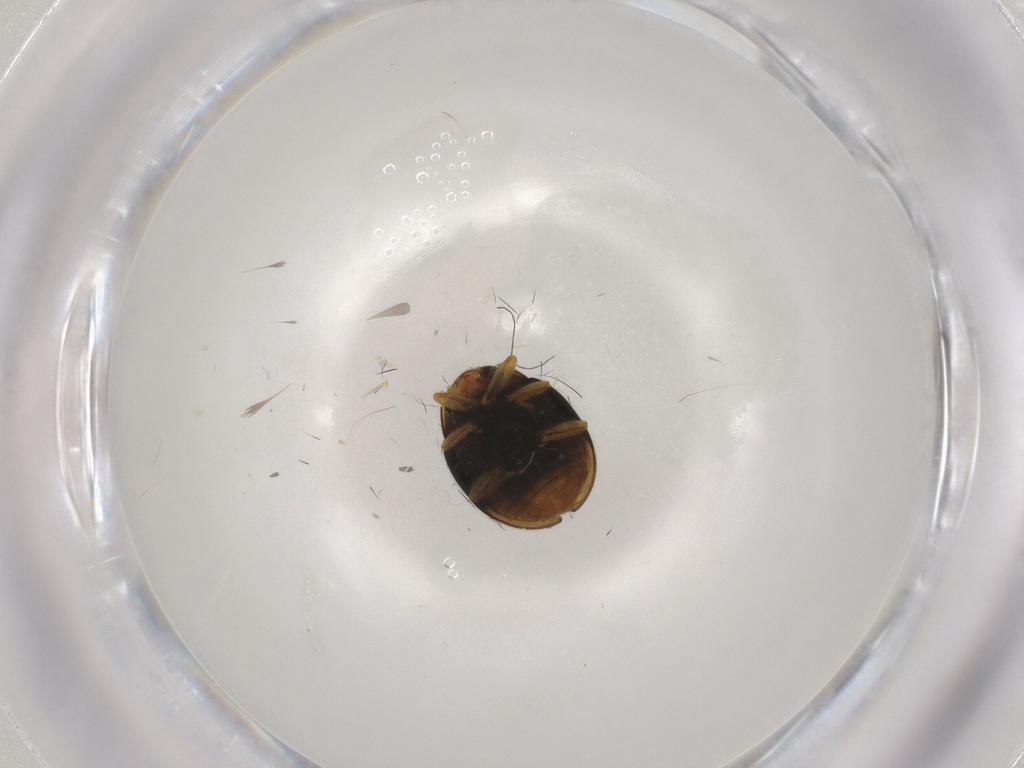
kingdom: Animalia
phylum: Arthropoda
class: Insecta
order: Coleoptera
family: Coccinellidae
